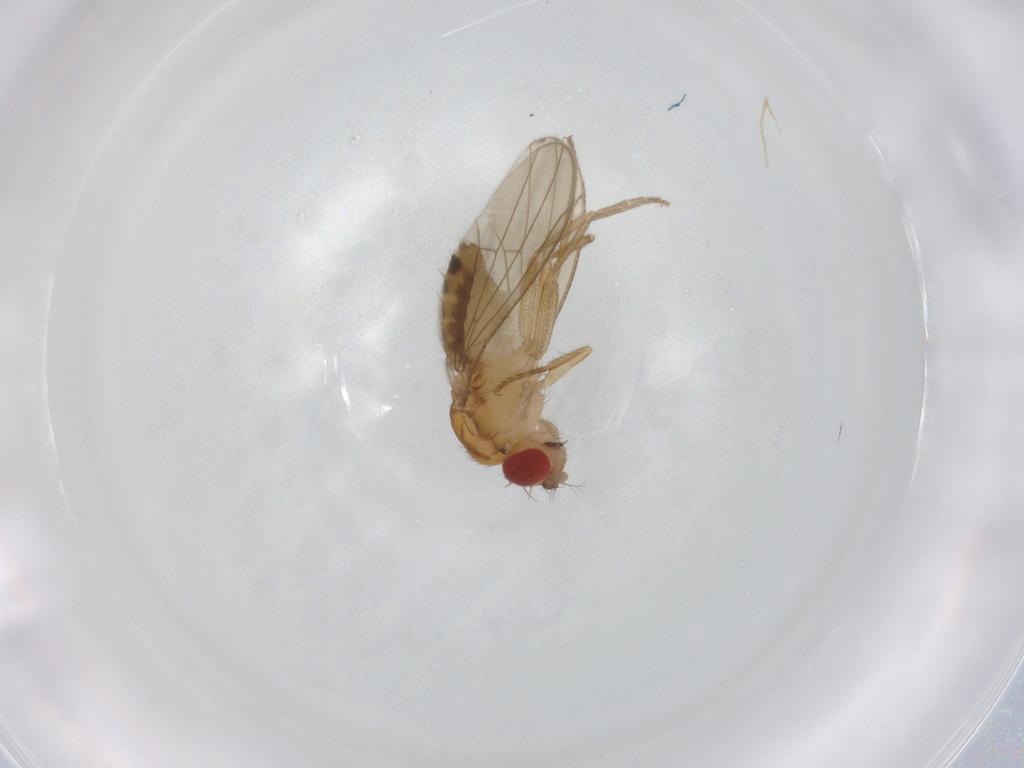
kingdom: Animalia
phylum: Arthropoda
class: Insecta
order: Diptera
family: Drosophilidae
